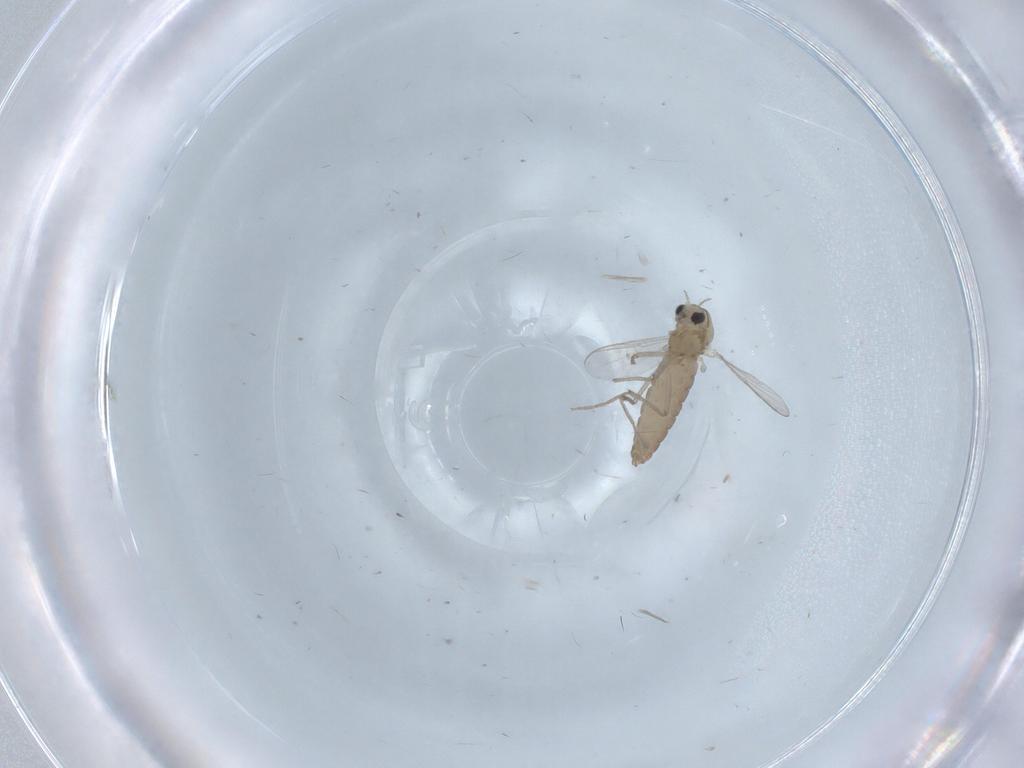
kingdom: Animalia
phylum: Arthropoda
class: Insecta
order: Diptera
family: Chironomidae
